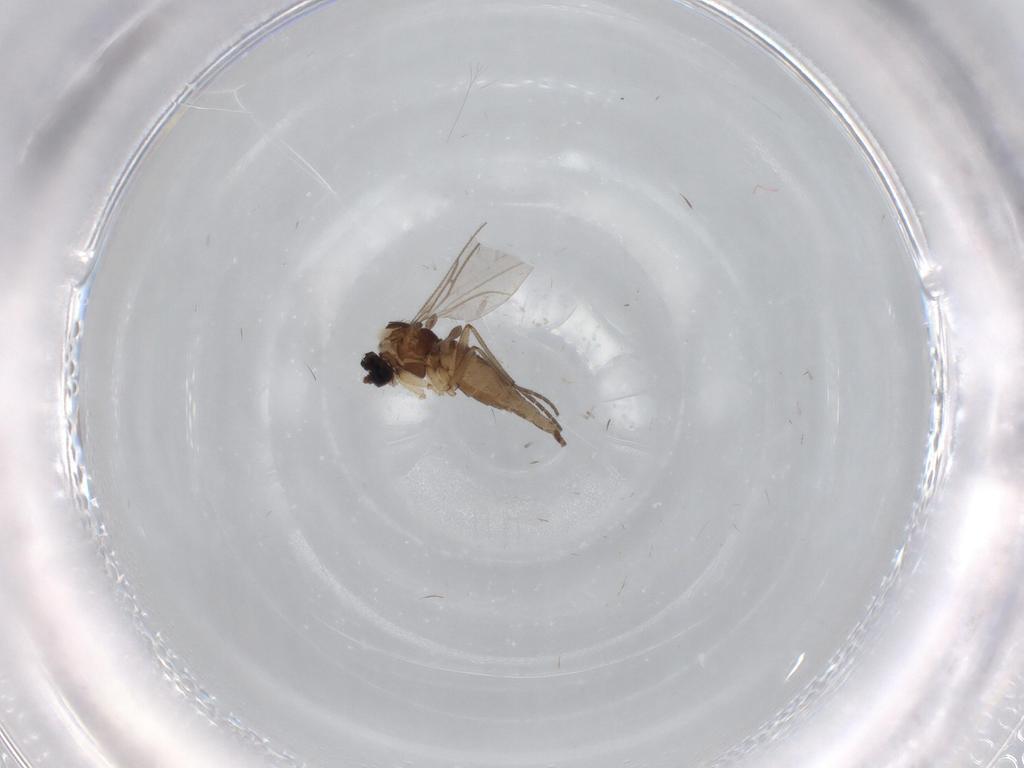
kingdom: Animalia
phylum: Arthropoda
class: Insecta
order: Diptera
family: Sciaridae
